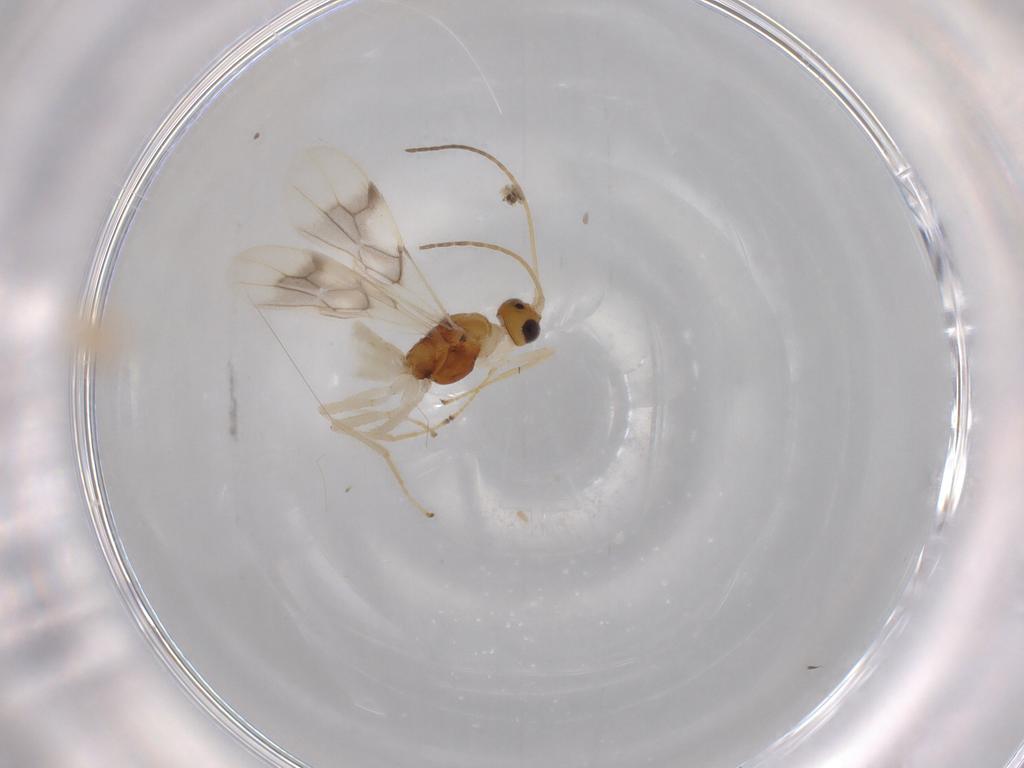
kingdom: Animalia
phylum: Arthropoda
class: Insecta
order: Hymenoptera
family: Braconidae
